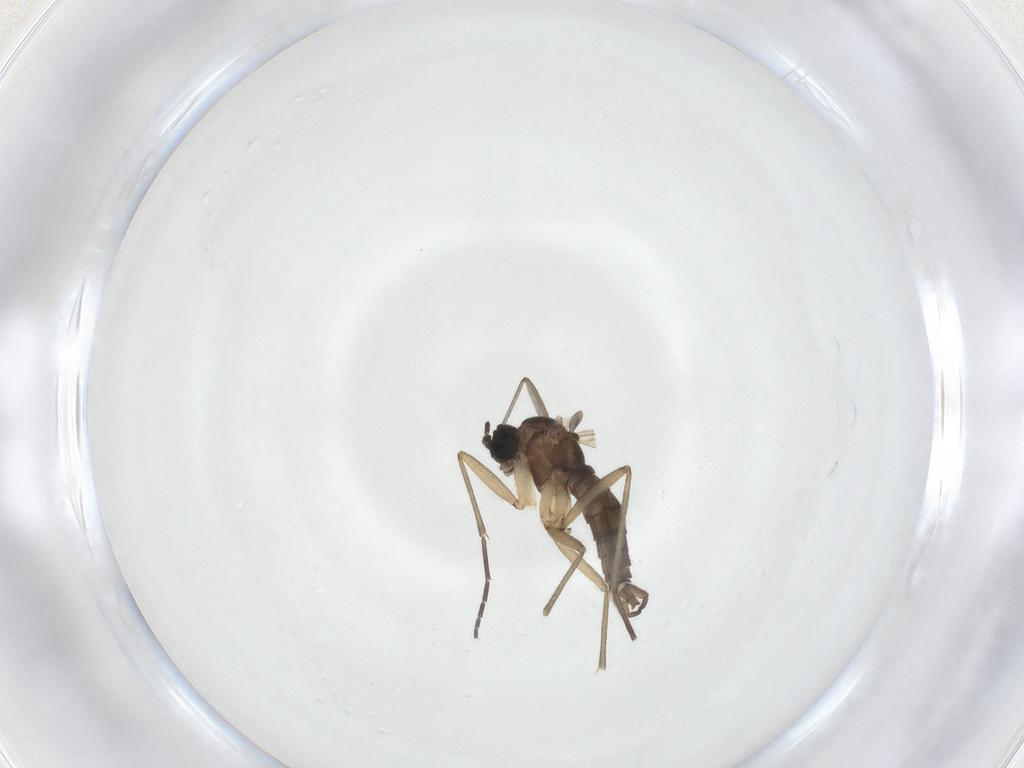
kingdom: Animalia
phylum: Arthropoda
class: Insecta
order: Diptera
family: Sciaridae
